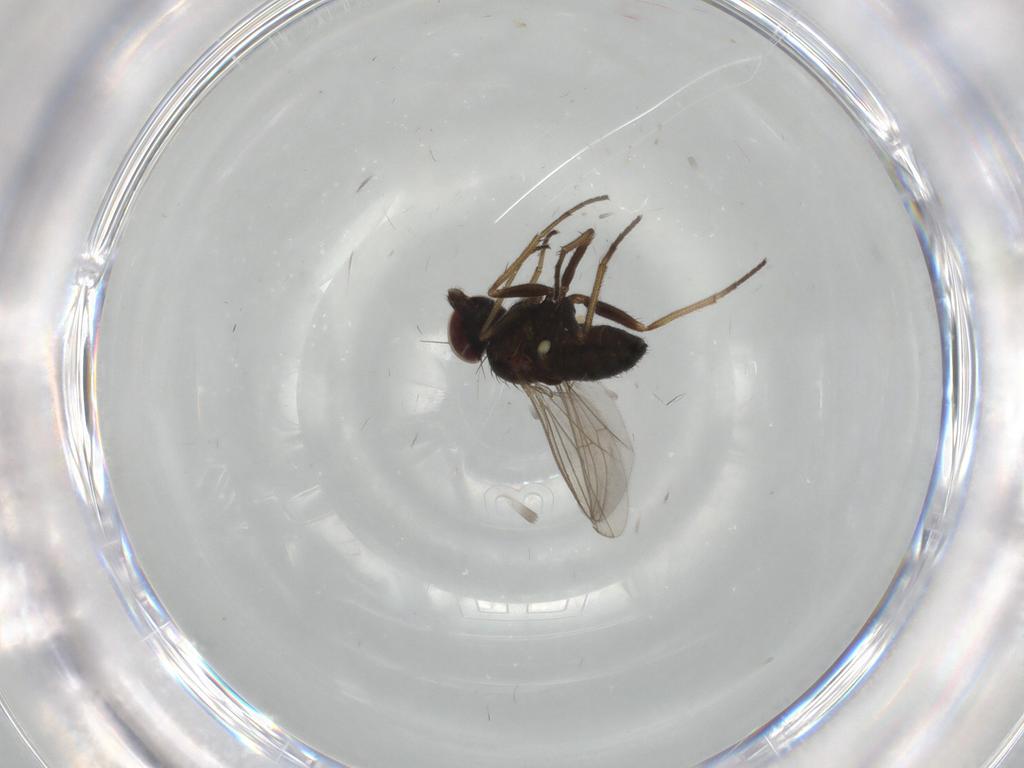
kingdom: Animalia
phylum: Arthropoda
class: Insecta
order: Diptera
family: Dolichopodidae
